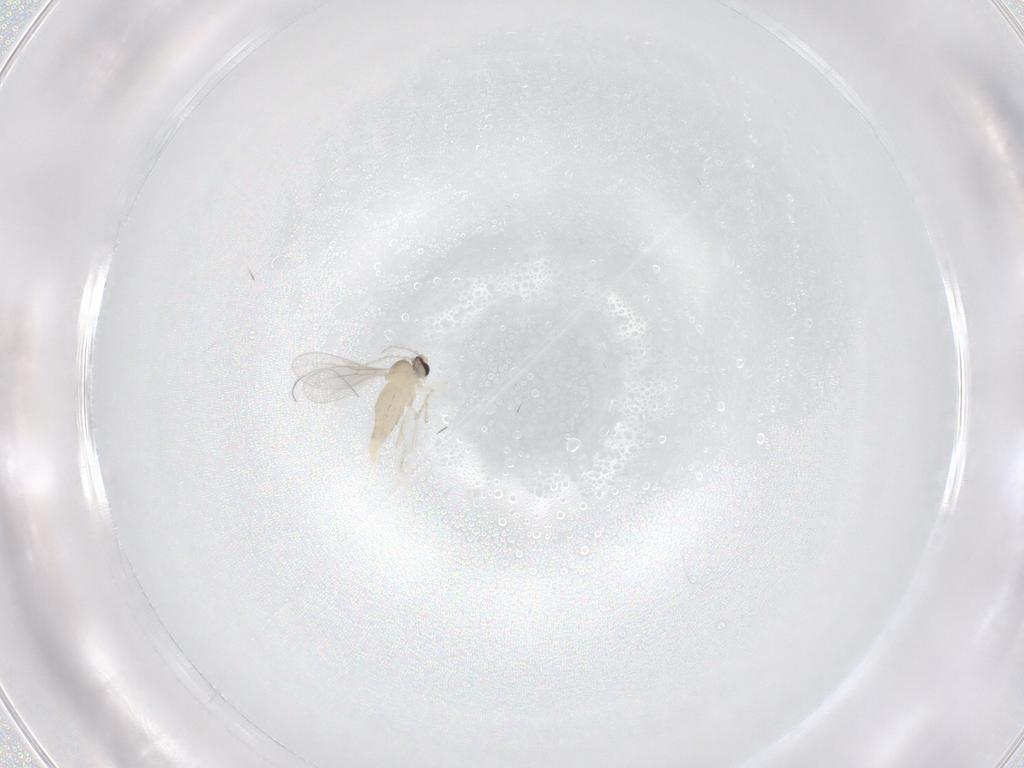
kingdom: Animalia
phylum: Arthropoda
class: Insecta
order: Diptera
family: Cecidomyiidae
